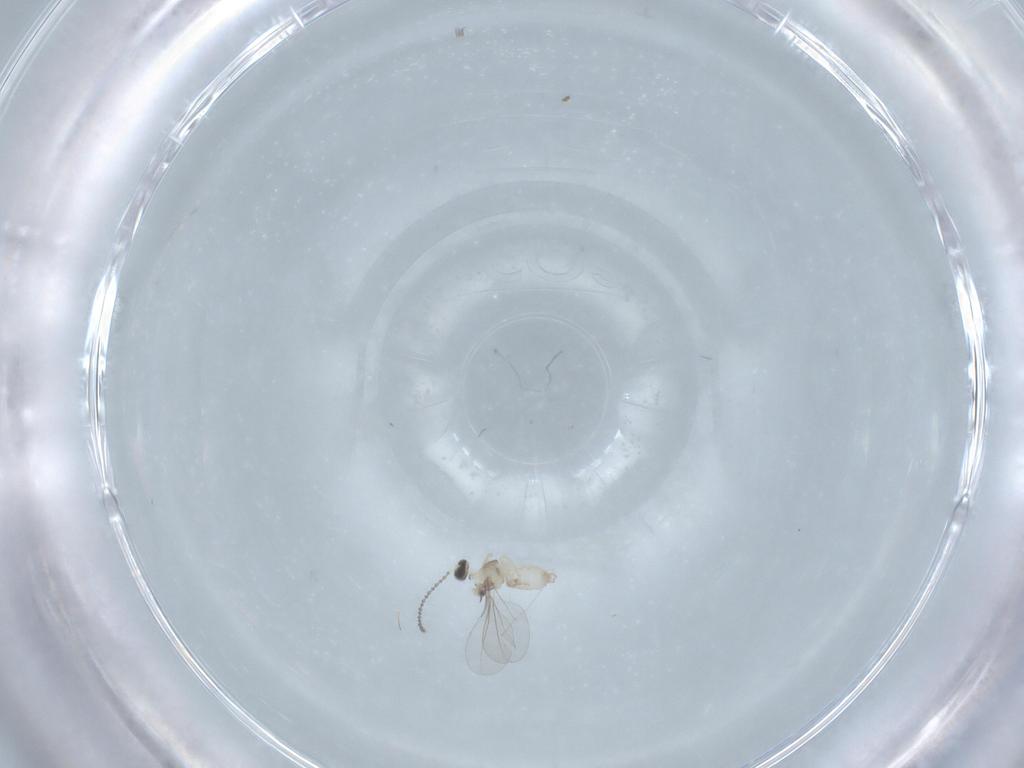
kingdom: Animalia
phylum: Arthropoda
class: Insecta
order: Diptera
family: Cecidomyiidae
